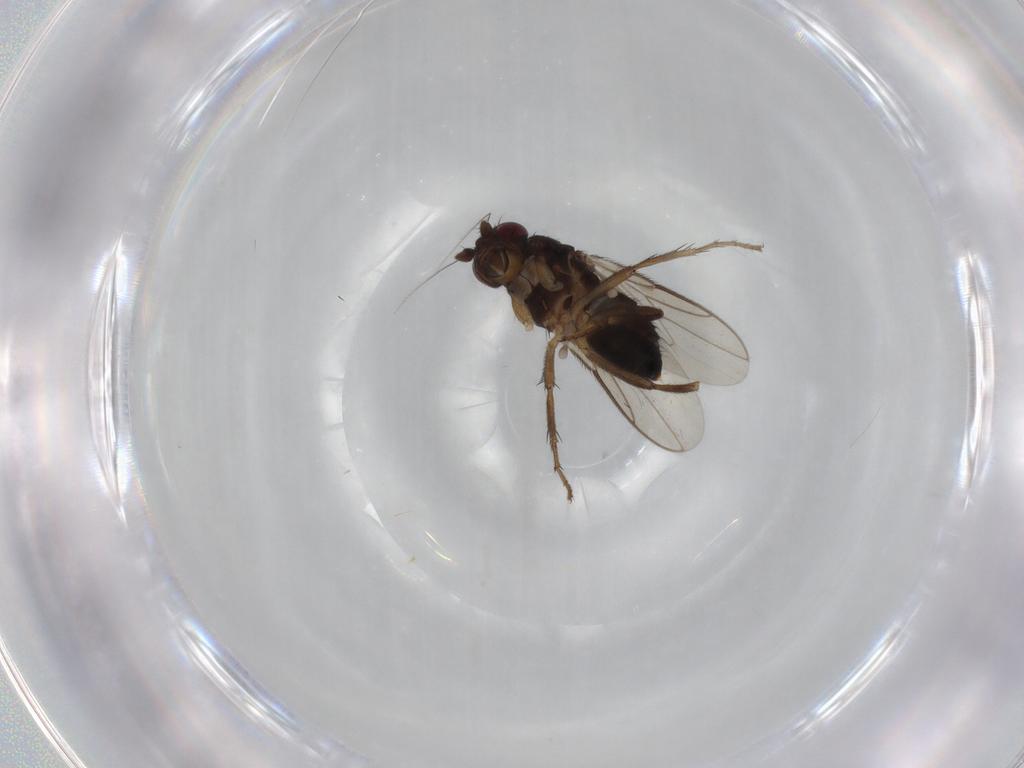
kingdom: Animalia
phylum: Arthropoda
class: Insecta
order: Diptera
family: Sphaeroceridae
